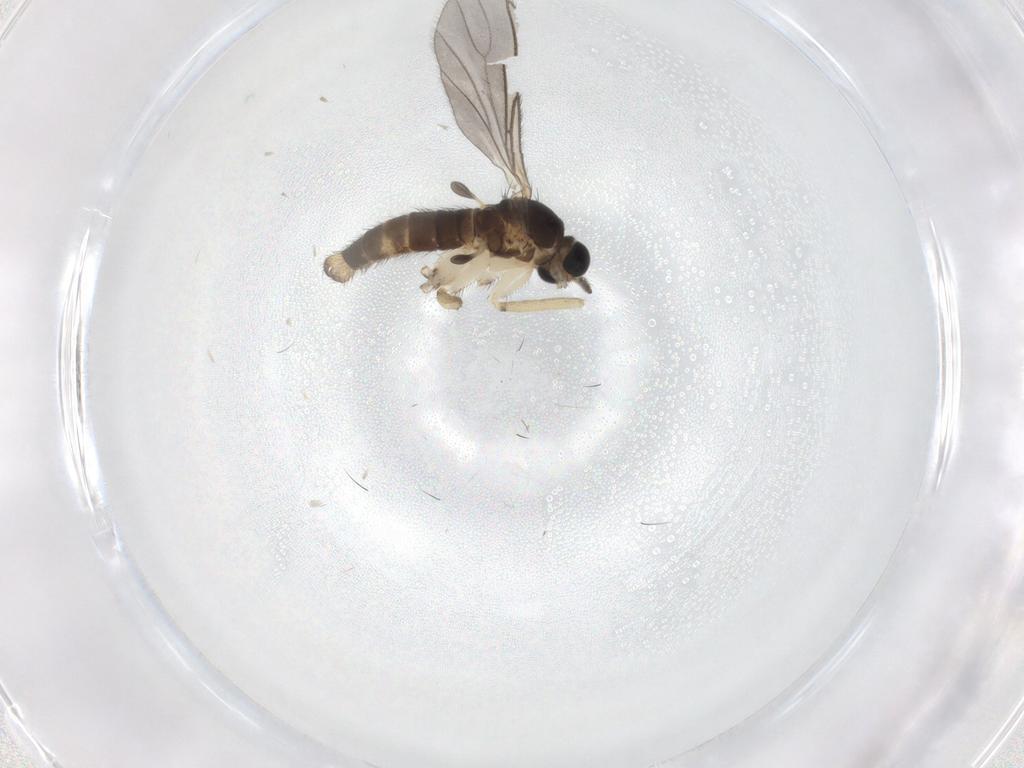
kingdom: Animalia
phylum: Arthropoda
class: Insecta
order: Diptera
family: Sciaridae
